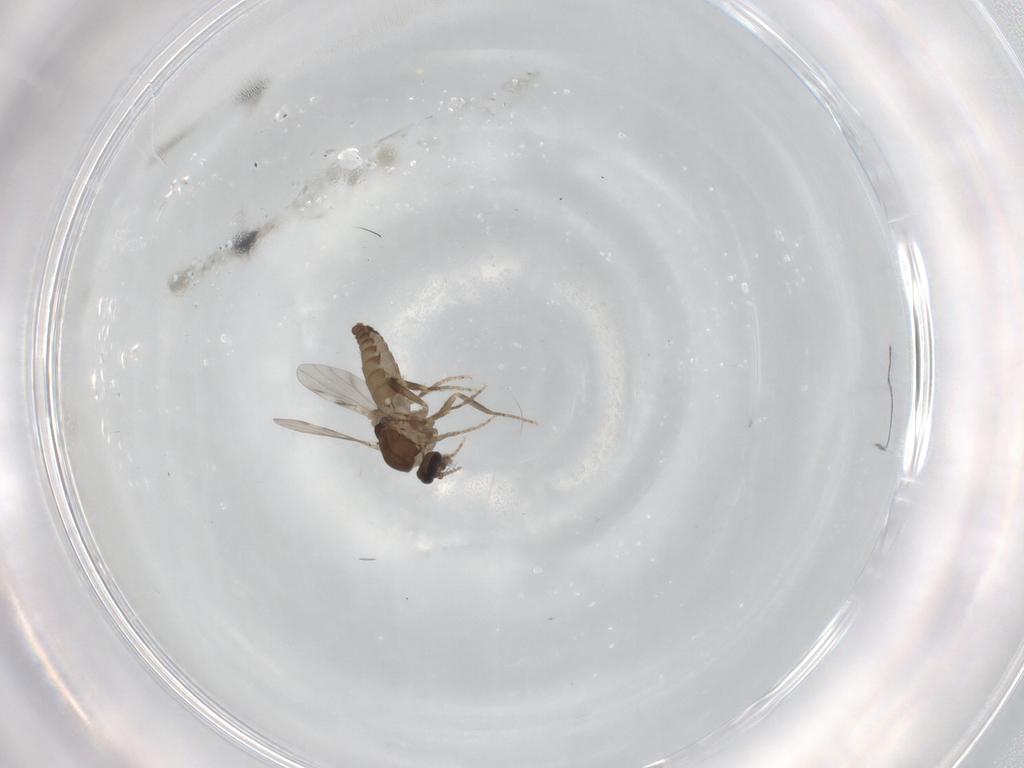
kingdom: Animalia
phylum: Arthropoda
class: Insecta
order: Diptera
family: Ceratopogonidae
